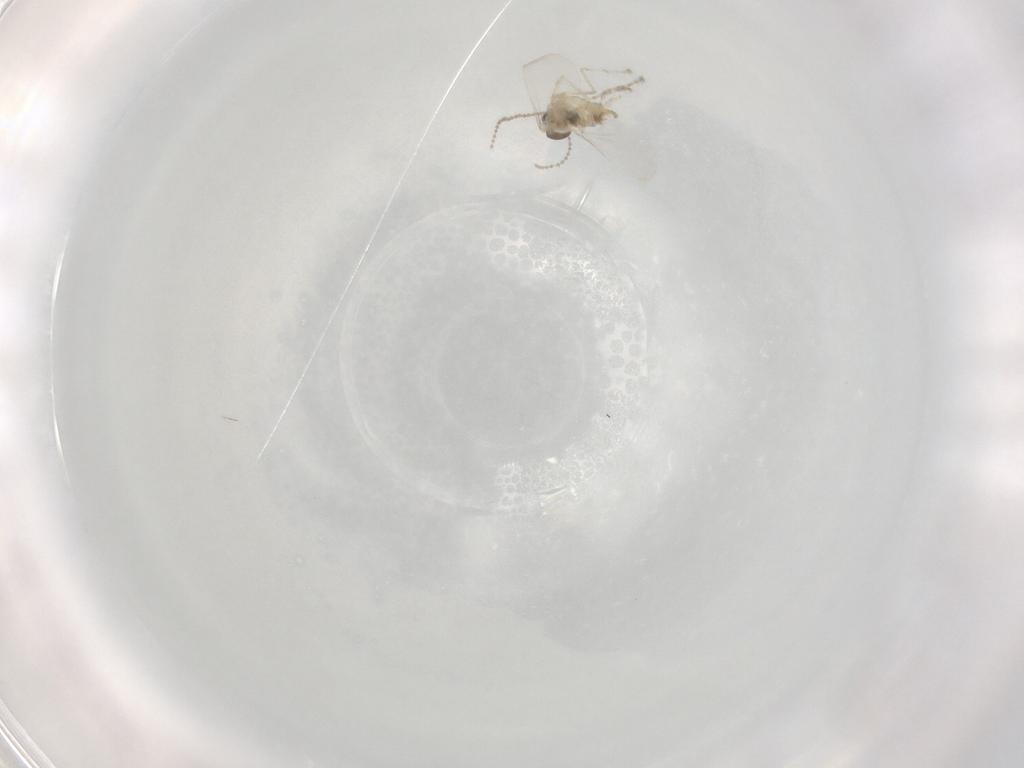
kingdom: Animalia
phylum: Arthropoda
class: Insecta
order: Diptera
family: Cecidomyiidae
